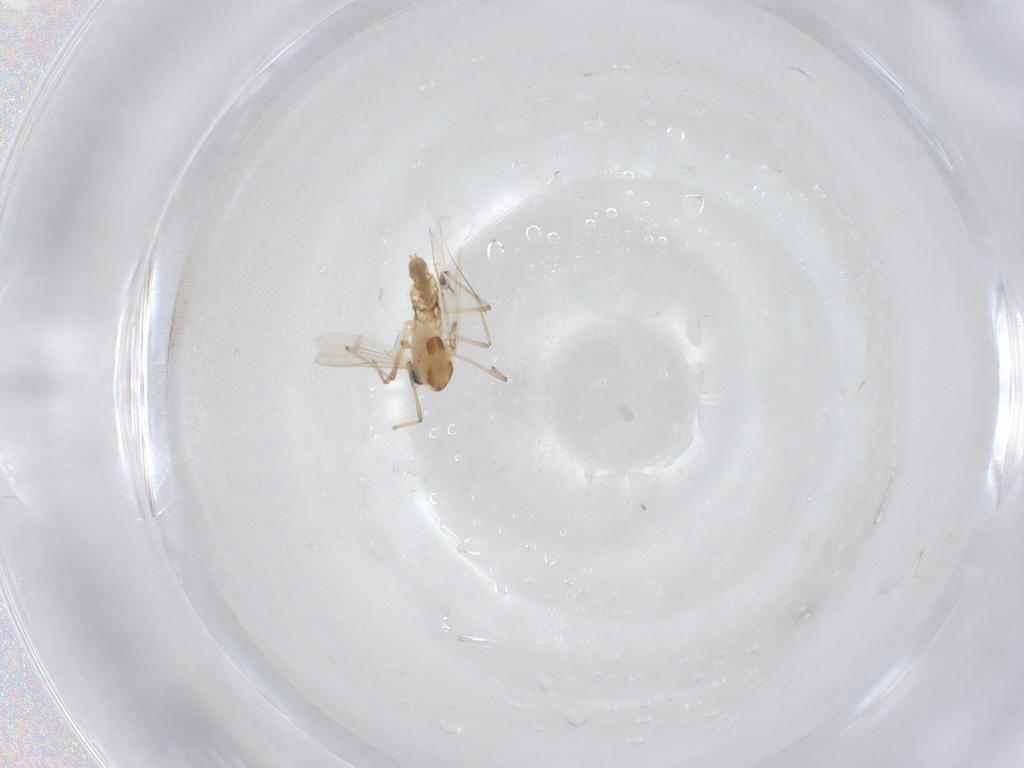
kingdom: Animalia
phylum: Arthropoda
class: Insecta
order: Diptera
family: Chironomidae
